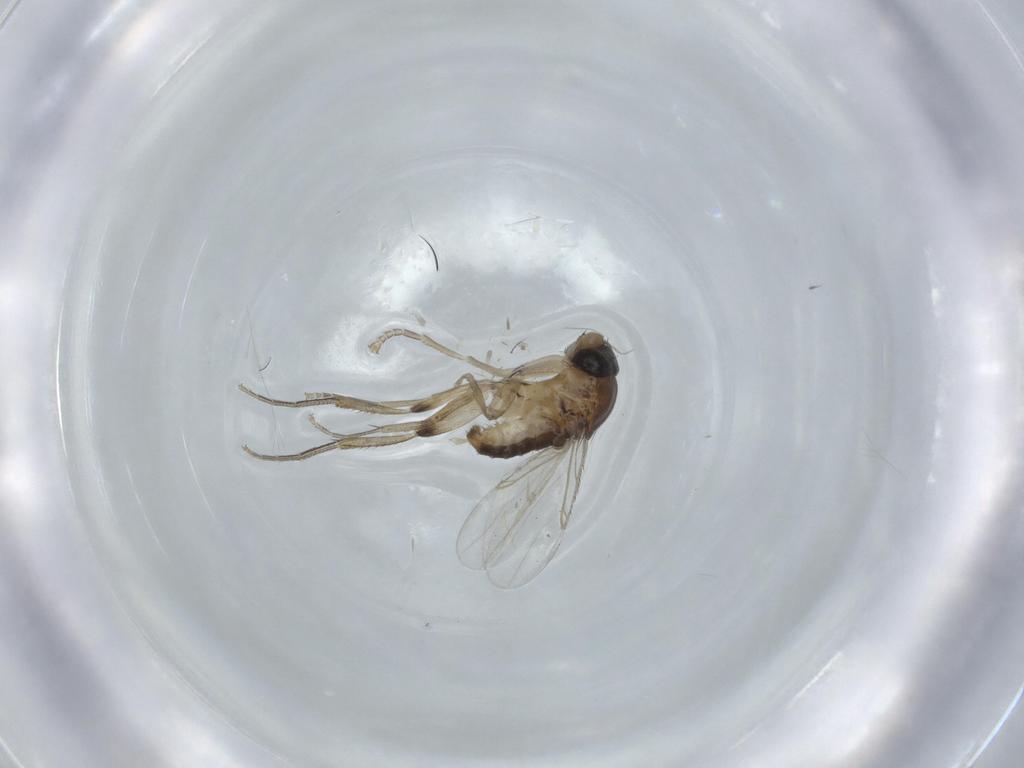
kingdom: Animalia
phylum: Arthropoda
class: Insecta
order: Diptera
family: Phoridae
